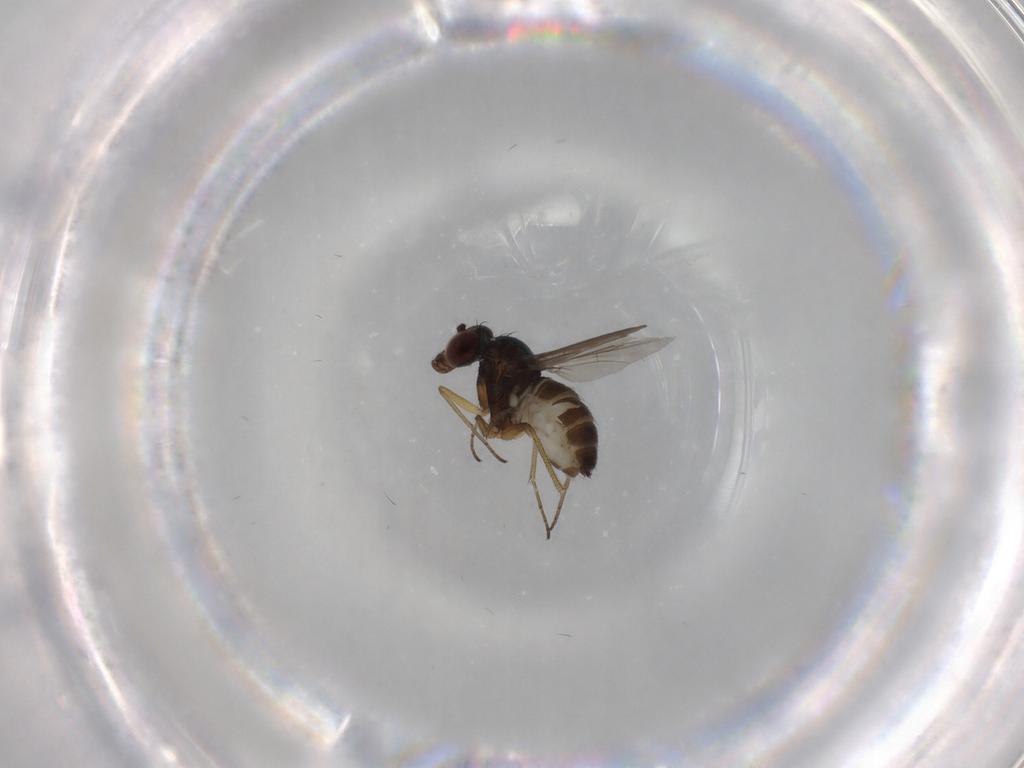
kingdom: Animalia
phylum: Arthropoda
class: Insecta
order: Diptera
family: Dolichopodidae
